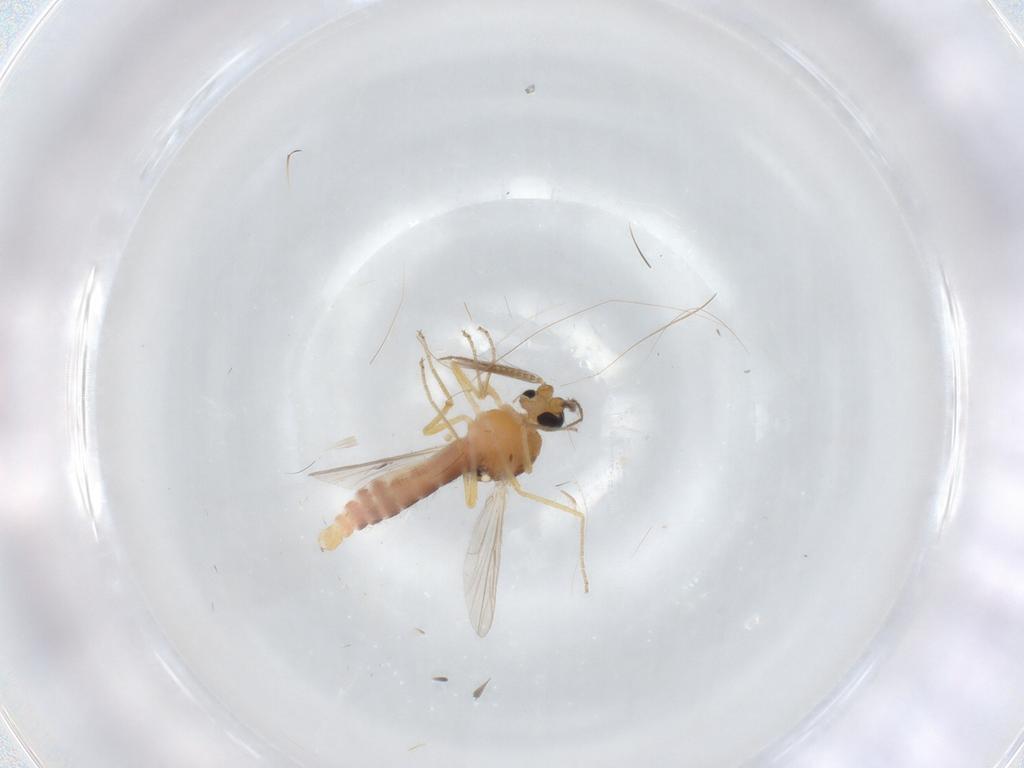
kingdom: Animalia
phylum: Arthropoda
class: Insecta
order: Diptera
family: Ceratopogonidae
